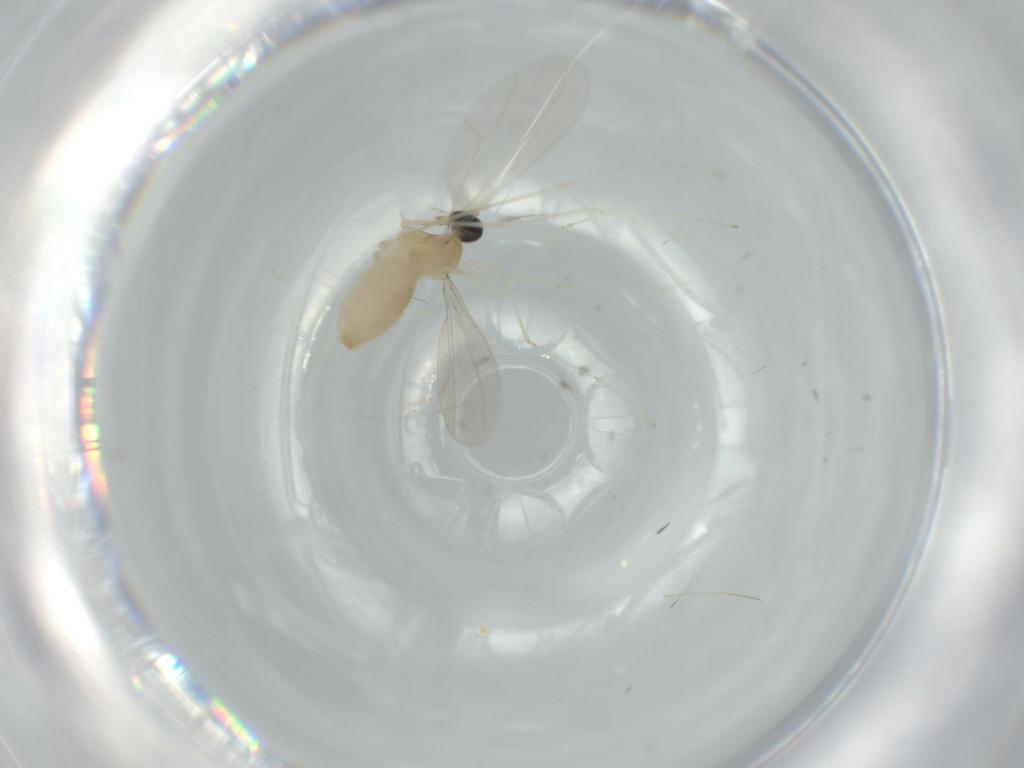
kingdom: Animalia
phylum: Arthropoda
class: Insecta
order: Diptera
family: Cecidomyiidae
